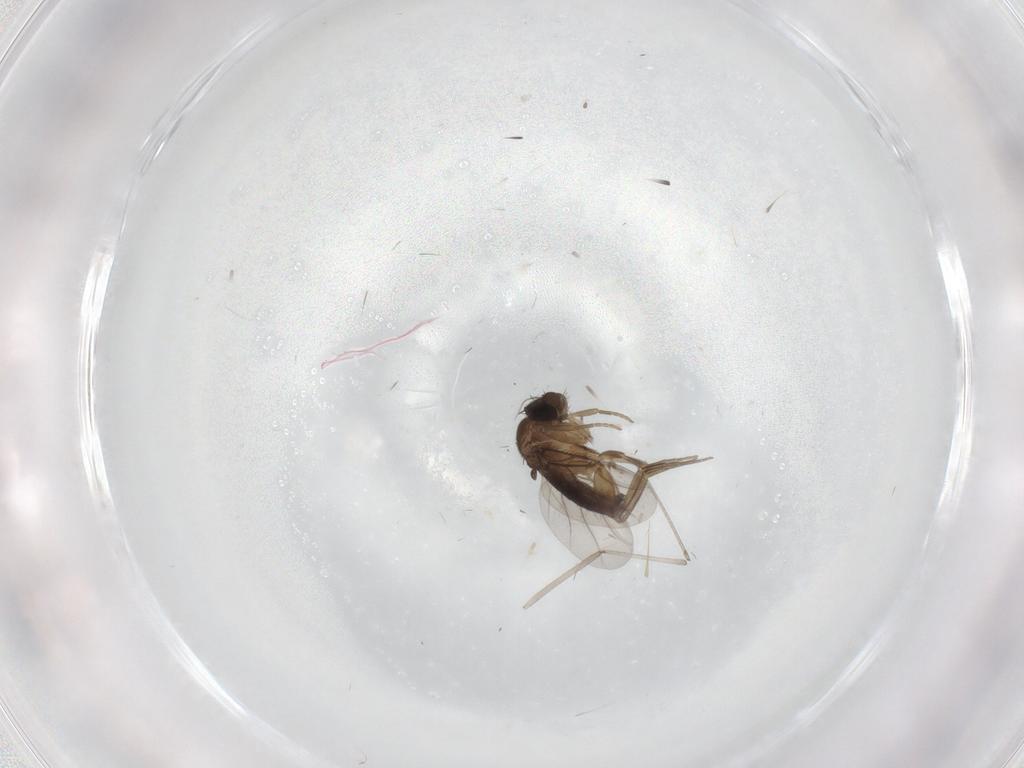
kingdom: Animalia
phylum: Arthropoda
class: Insecta
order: Diptera
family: Phoridae
